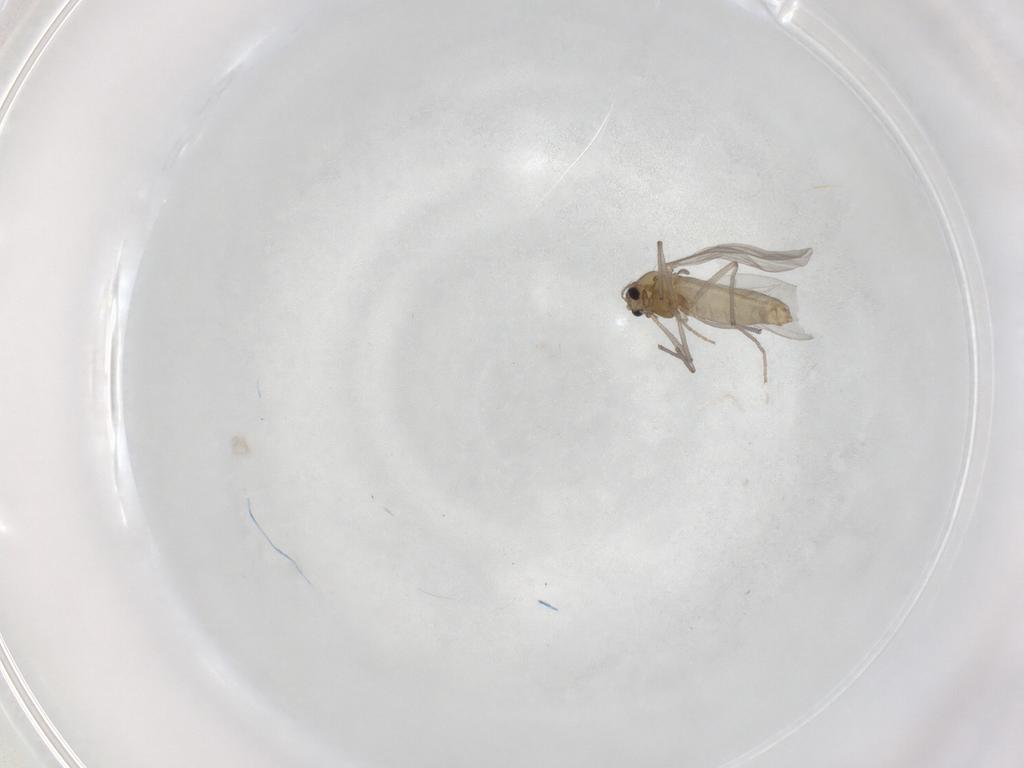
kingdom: Animalia
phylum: Arthropoda
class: Insecta
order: Diptera
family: Chironomidae
